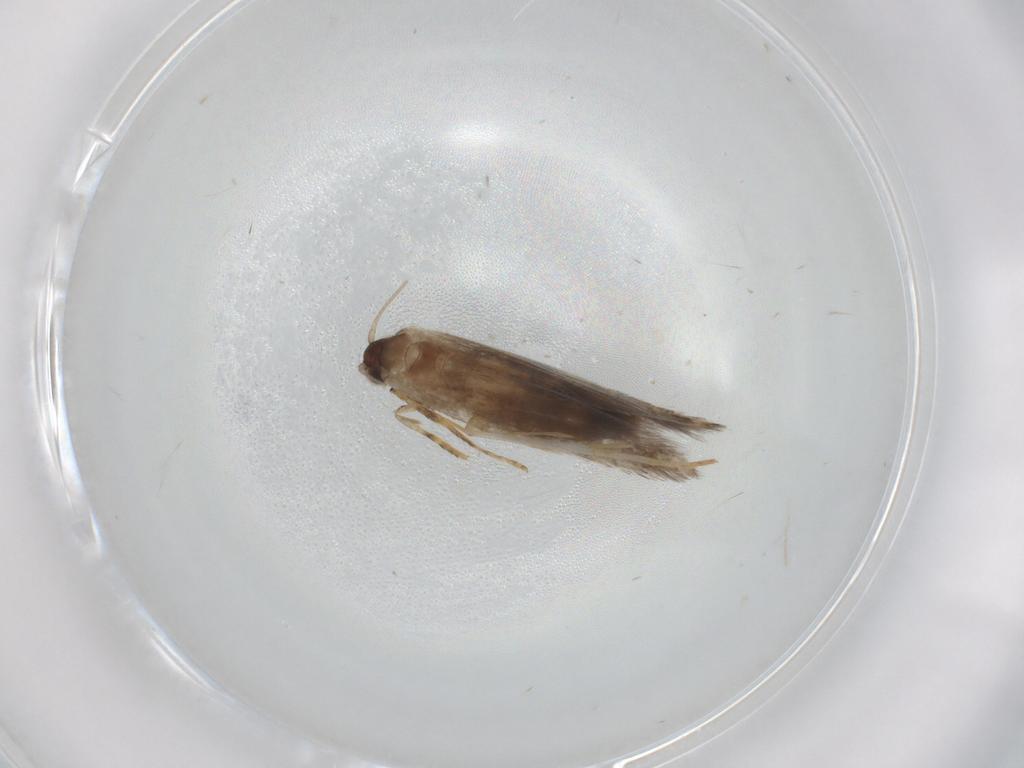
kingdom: Animalia
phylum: Arthropoda
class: Insecta
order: Lepidoptera
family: Tineidae
